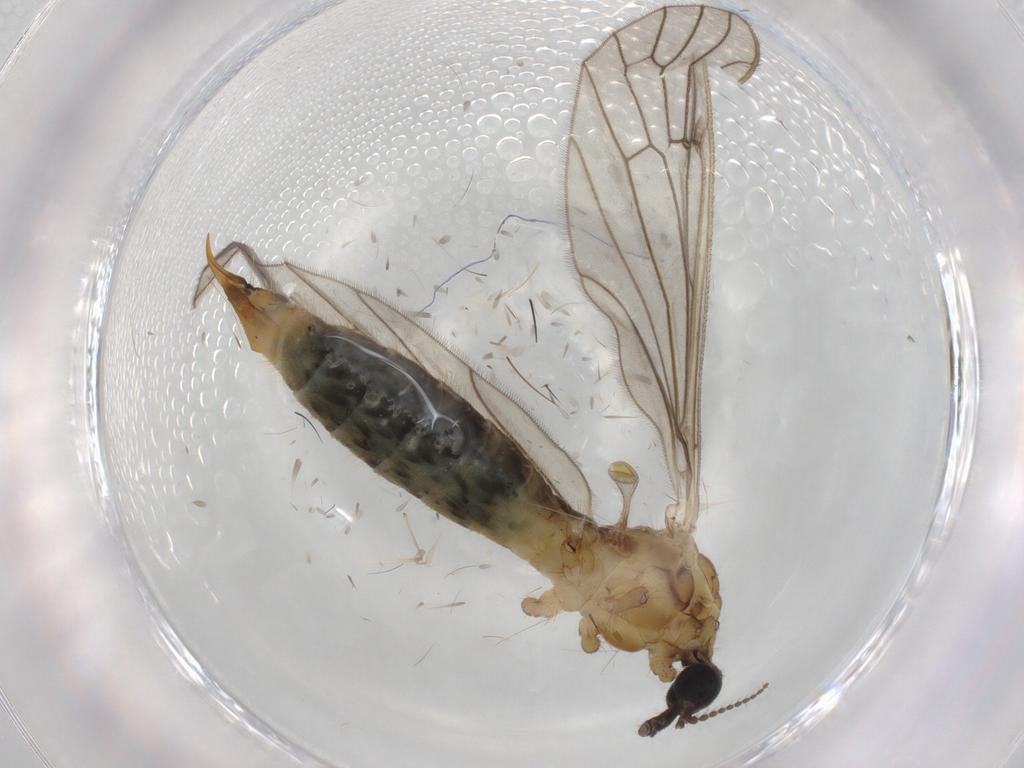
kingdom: Animalia
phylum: Arthropoda
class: Insecta
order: Diptera
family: Limoniidae
